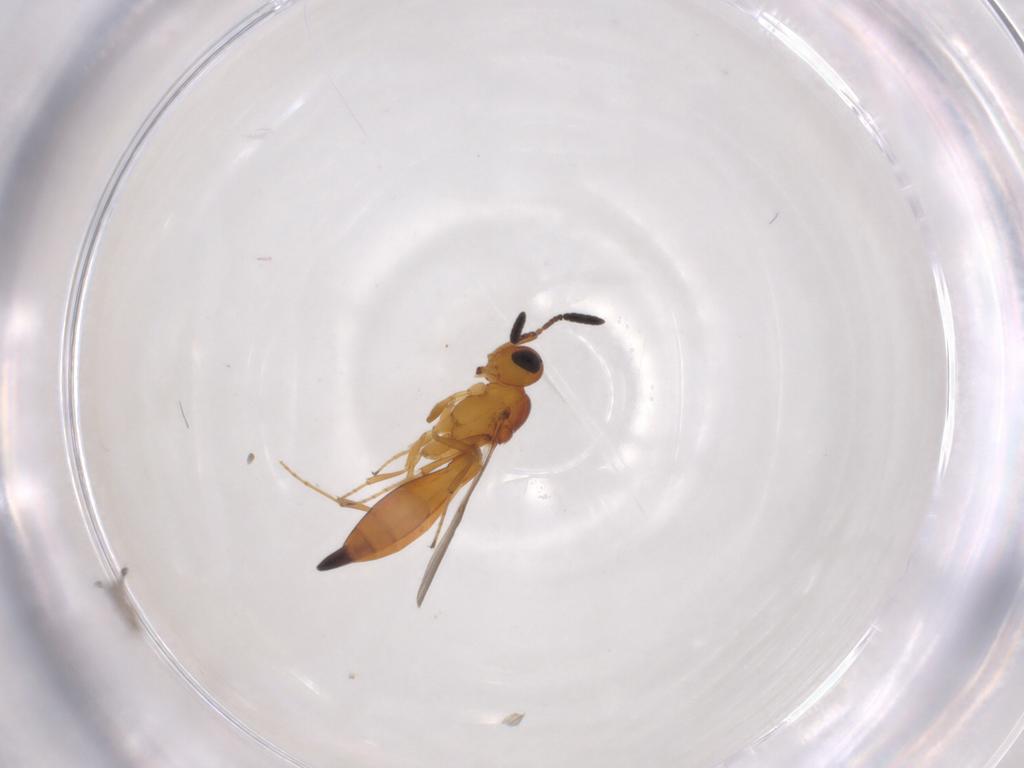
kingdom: Animalia
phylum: Arthropoda
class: Insecta
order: Hymenoptera
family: Scelionidae
